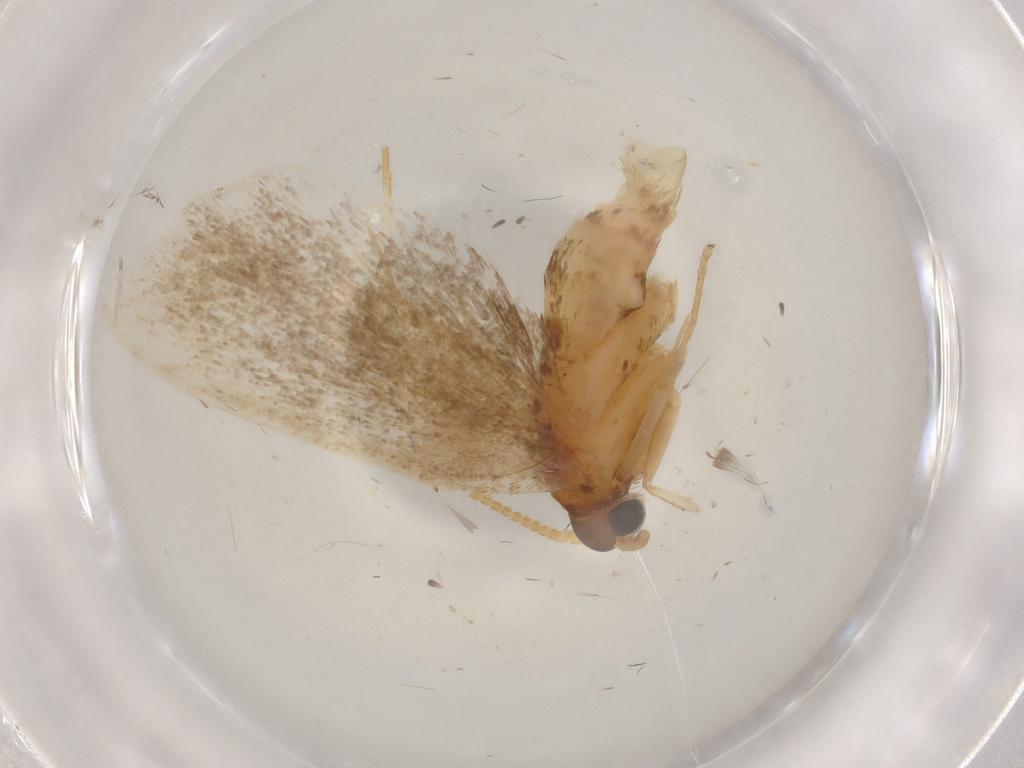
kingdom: Animalia
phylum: Arthropoda
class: Insecta
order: Lepidoptera
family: Lecithoceridae
